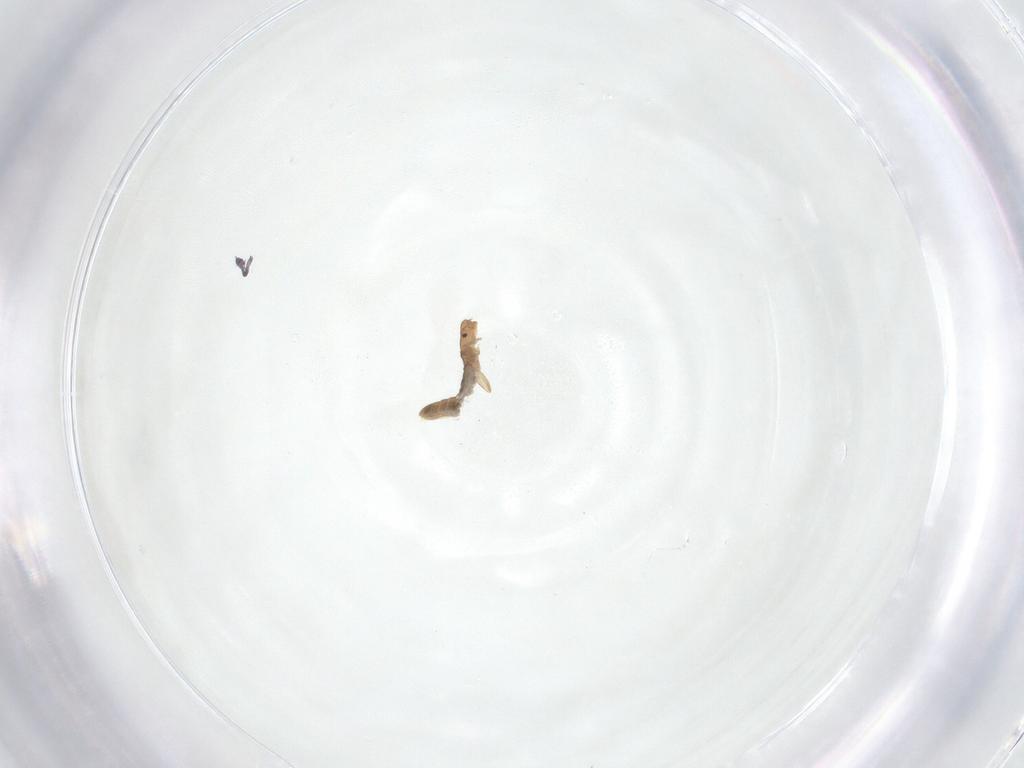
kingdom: Animalia
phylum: Arthropoda
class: Insecta
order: Psocodea
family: Liposcelididae
